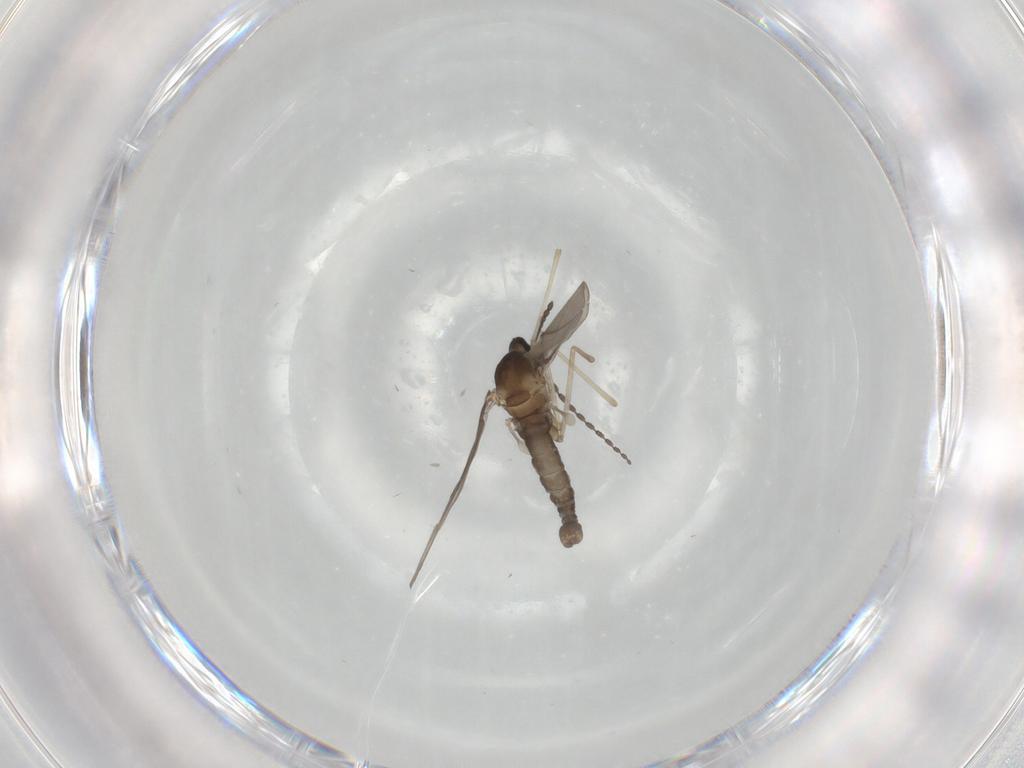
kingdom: Animalia
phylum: Arthropoda
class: Insecta
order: Diptera
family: Cecidomyiidae
